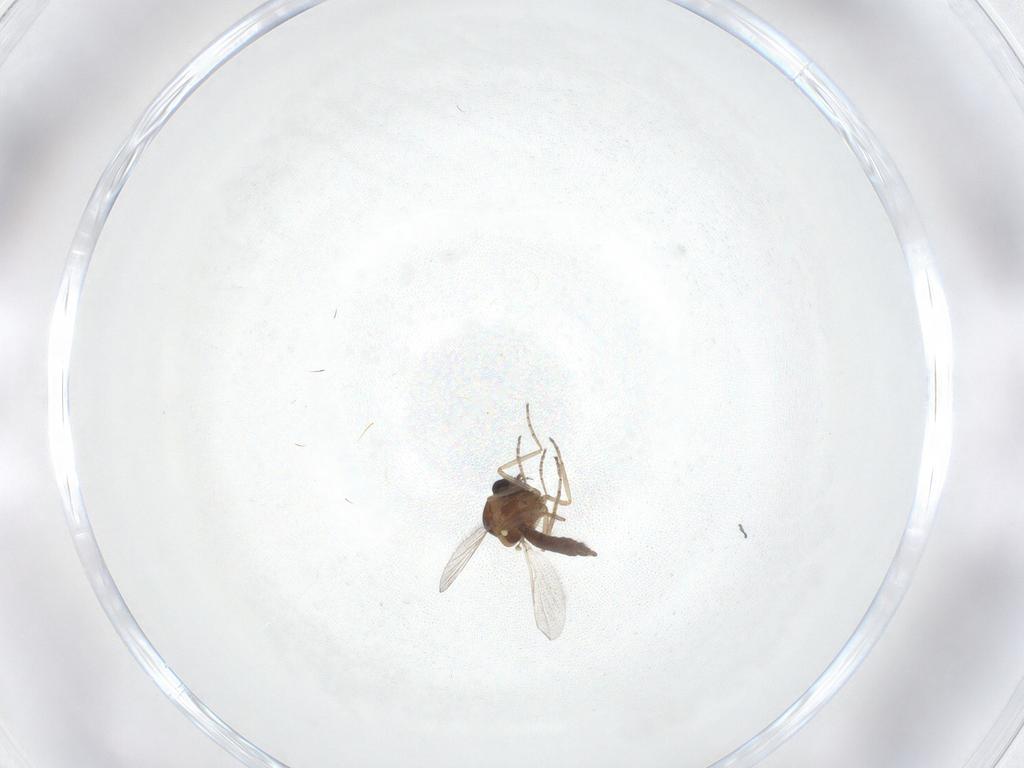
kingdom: Animalia
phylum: Arthropoda
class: Insecta
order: Diptera
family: Ceratopogonidae
